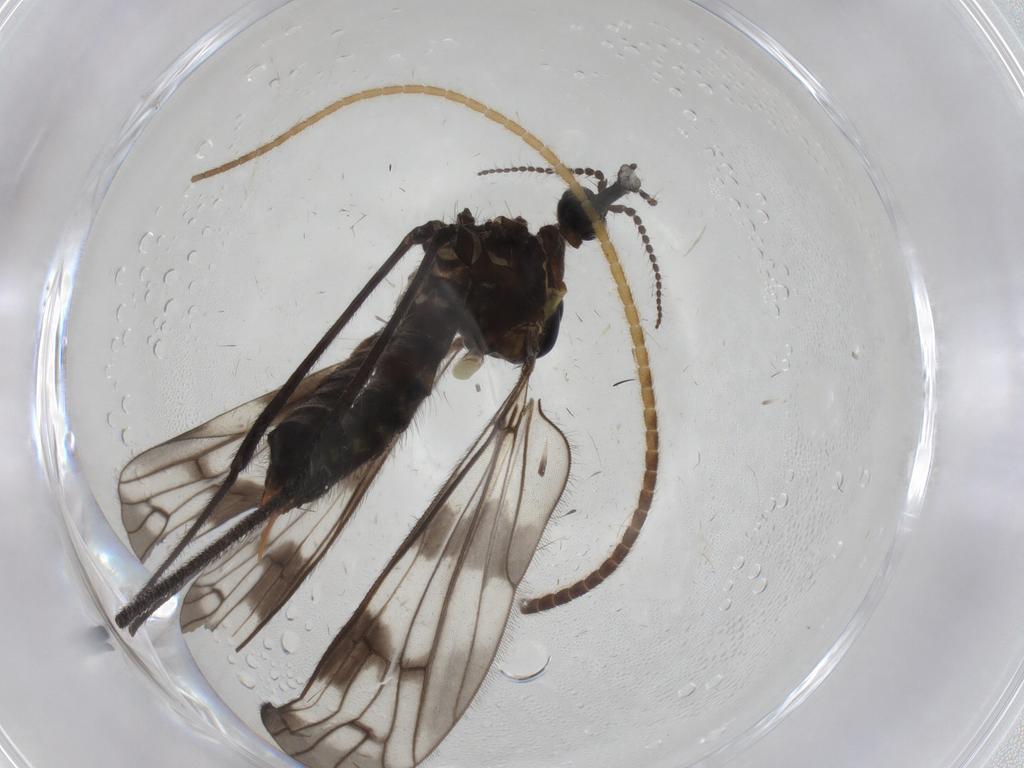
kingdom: Animalia
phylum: Arthropoda
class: Insecta
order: Diptera
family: Limoniidae
